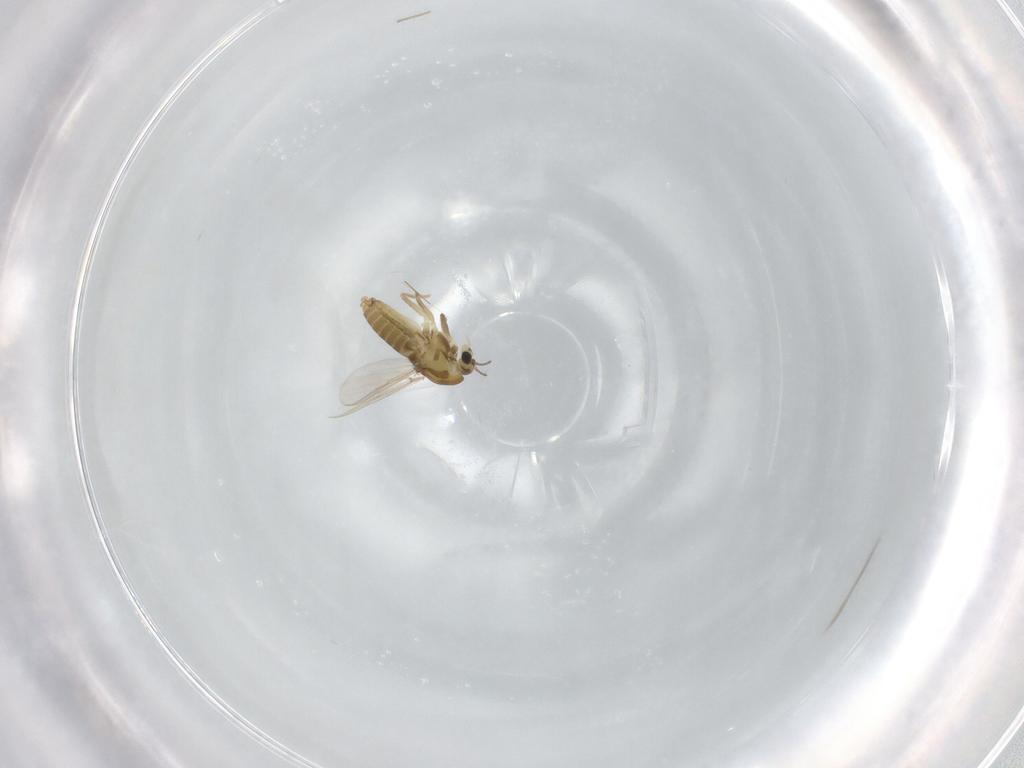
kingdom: Animalia
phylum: Arthropoda
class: Insecta
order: Diptera
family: Chironomidae
